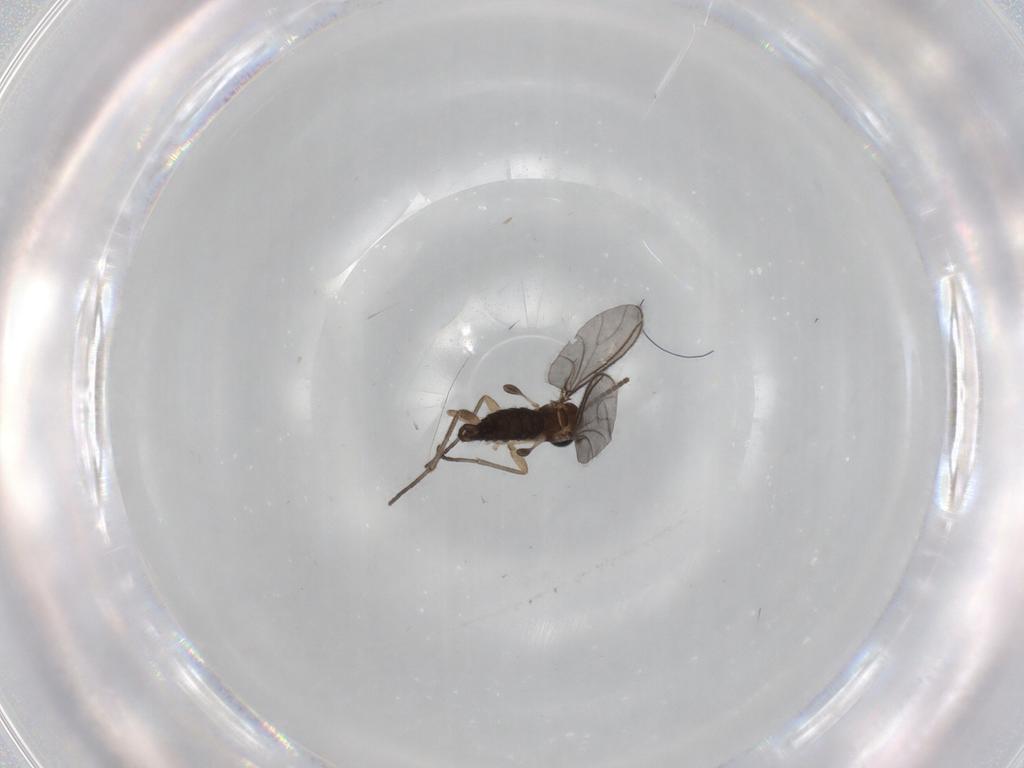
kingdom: Animalia
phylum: Arthropoda
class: Insecta
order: Diptera
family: Sciaridae
